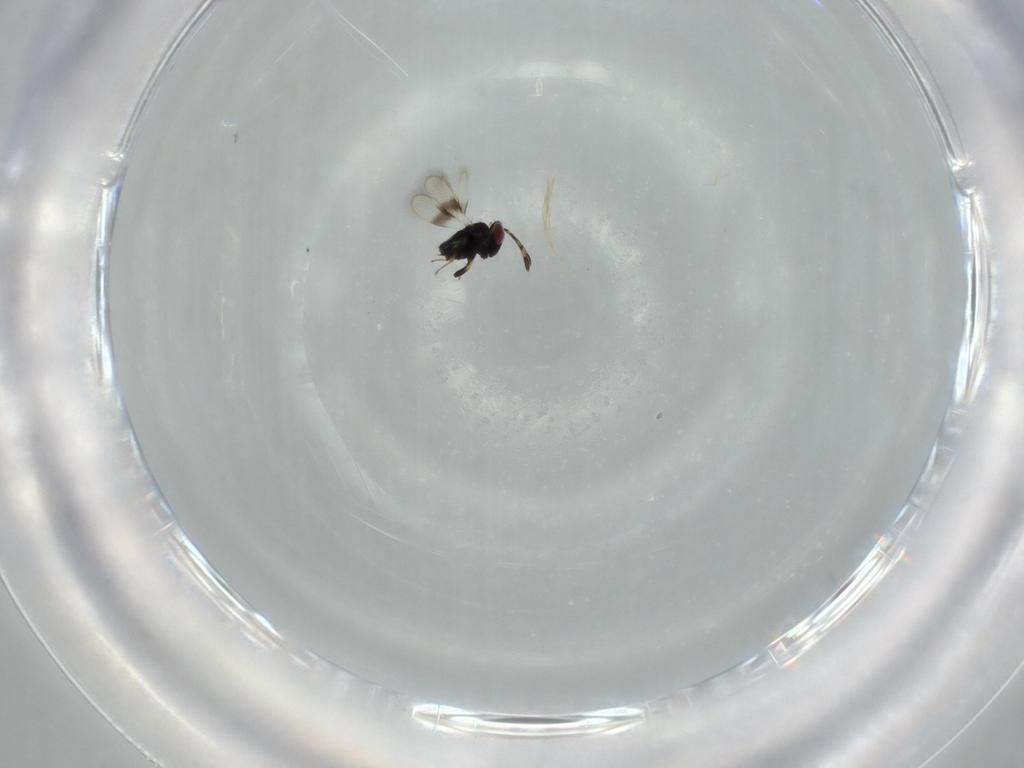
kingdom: Animalia
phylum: Arthropoda
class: Insecta
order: Hymenoptera
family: Azotidae
